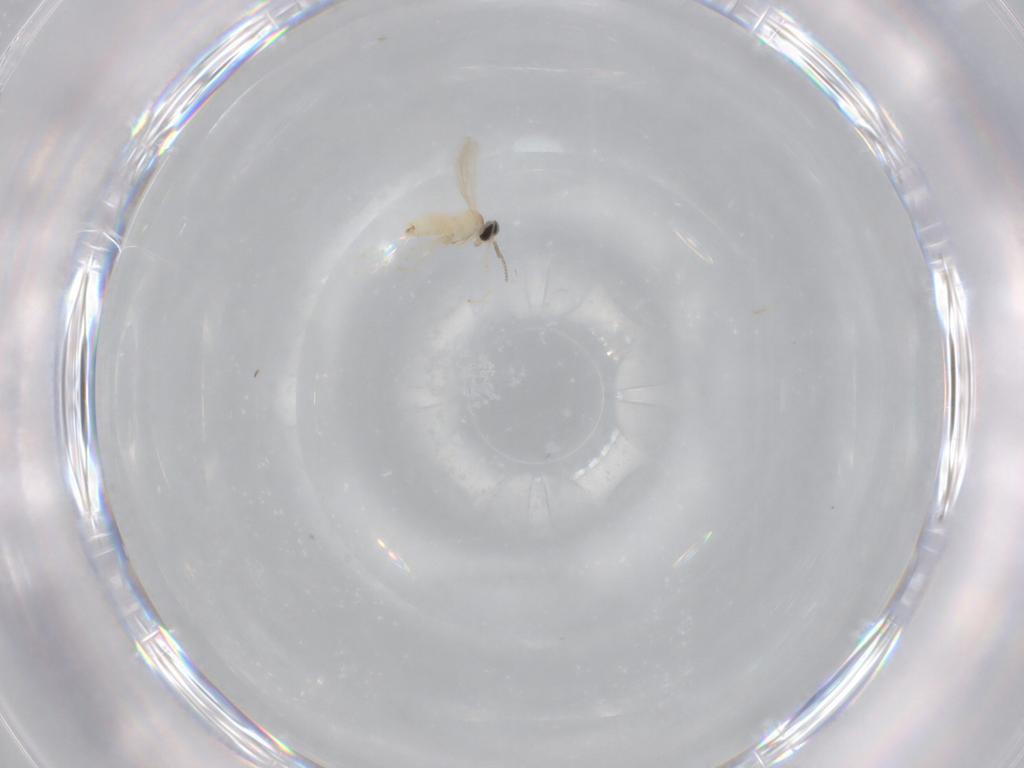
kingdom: Animalia
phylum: Arthropoda
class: Insecta
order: Diptera
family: Cecidomyiidae
